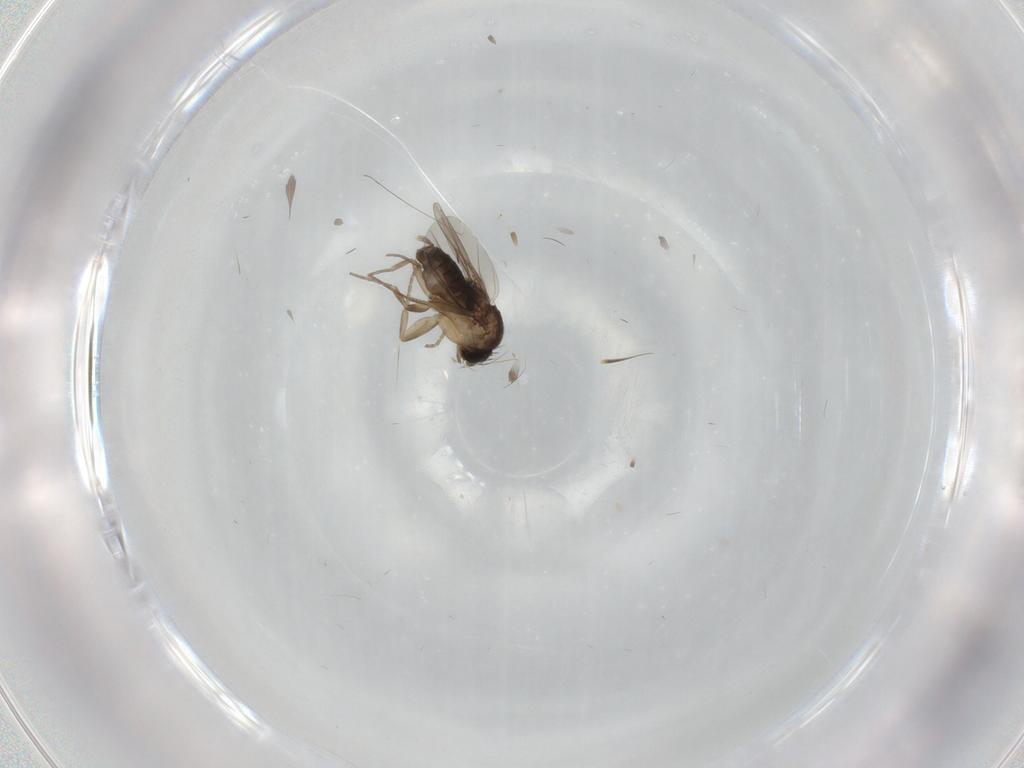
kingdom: Animalia
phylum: Arthropoda
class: Insecta
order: Diptera
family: Phoridae
